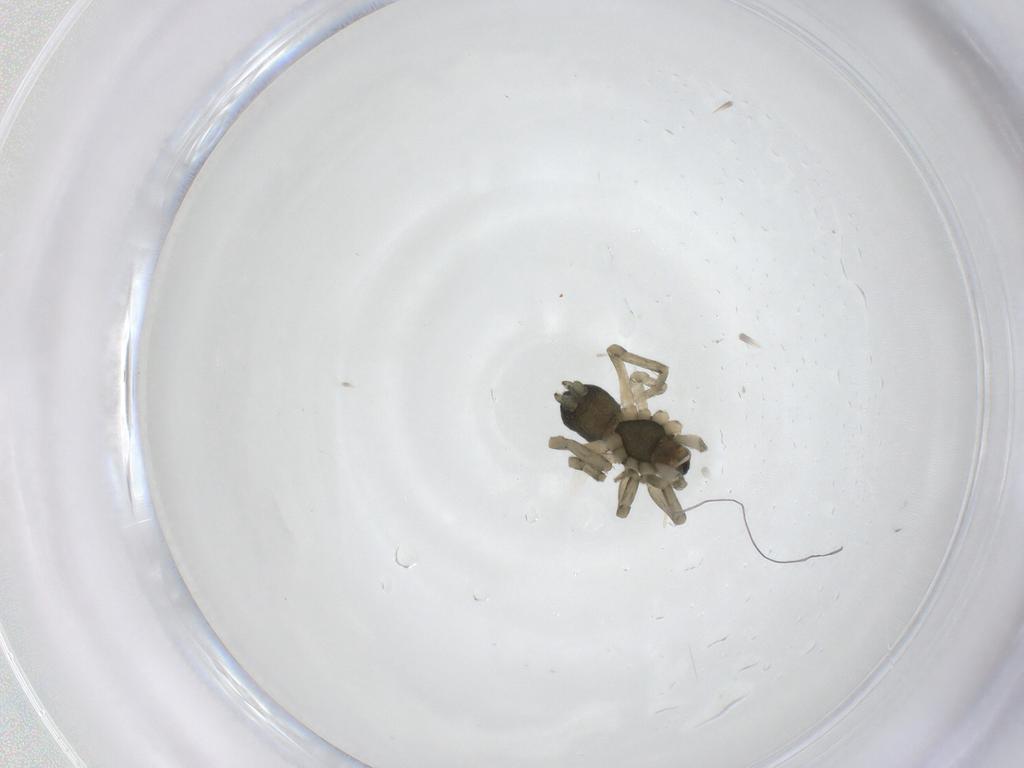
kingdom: Animalia
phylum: Arthropoda
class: Arachnida
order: Araneae
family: Lycosidae
